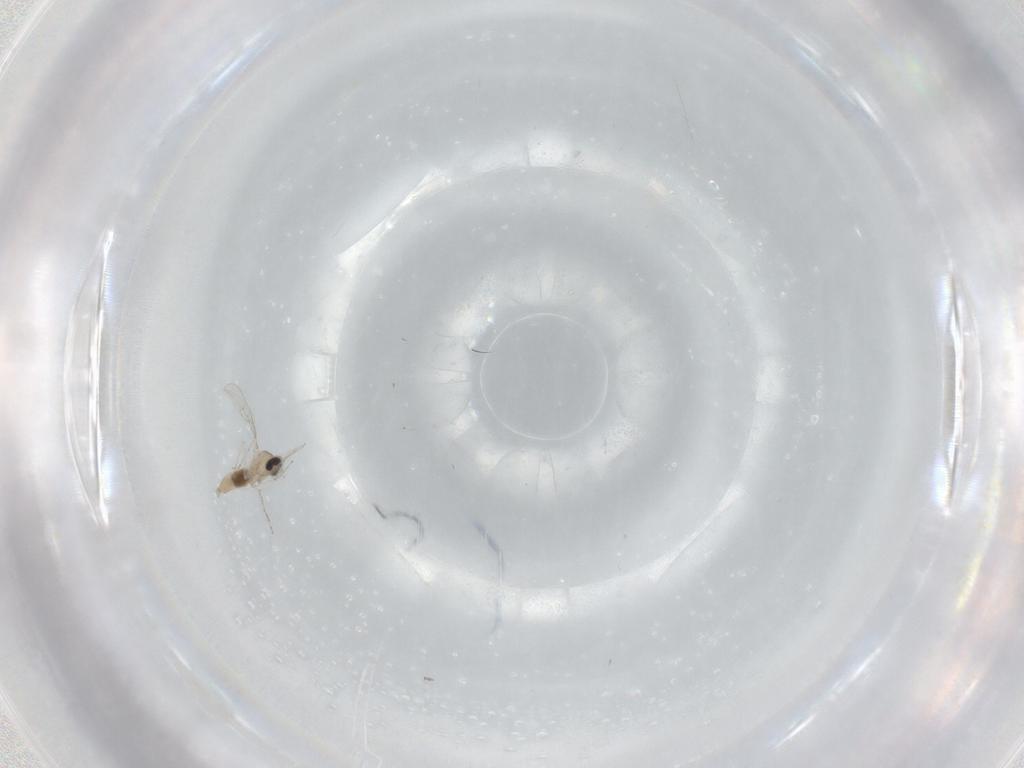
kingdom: Animalia
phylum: Arthropoda
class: Insecta
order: Diptera
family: Cecidomyiidae
